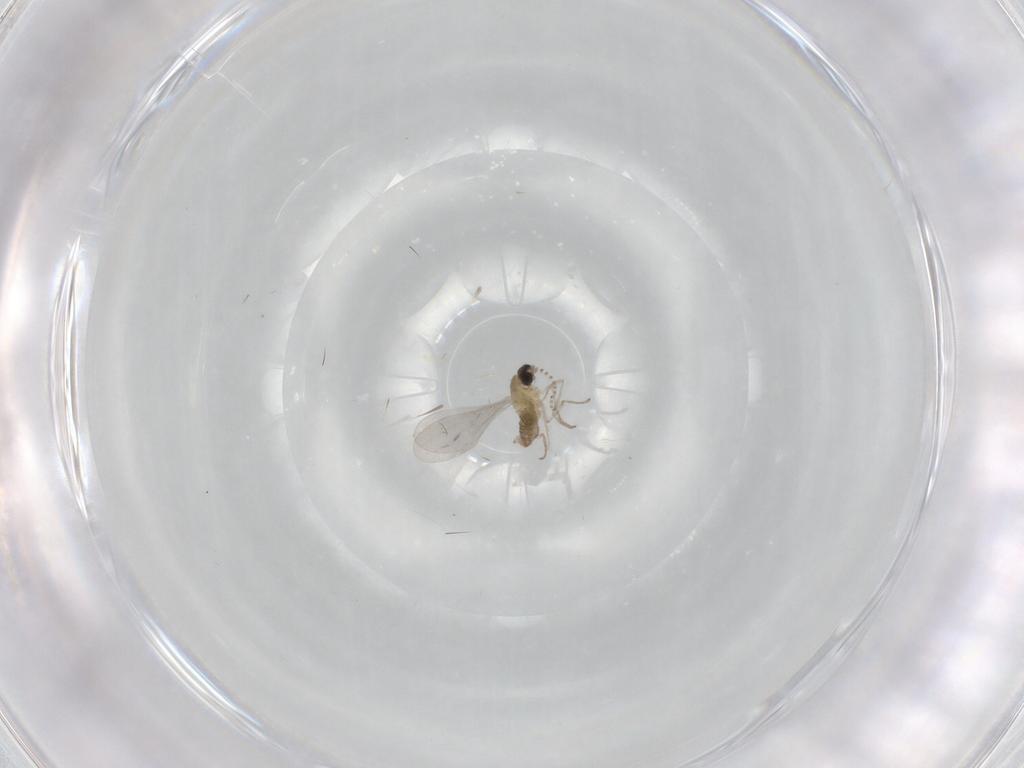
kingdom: Animalia
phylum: Arthropoda
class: Insecta
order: Diptera
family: Cecidomyiidae
